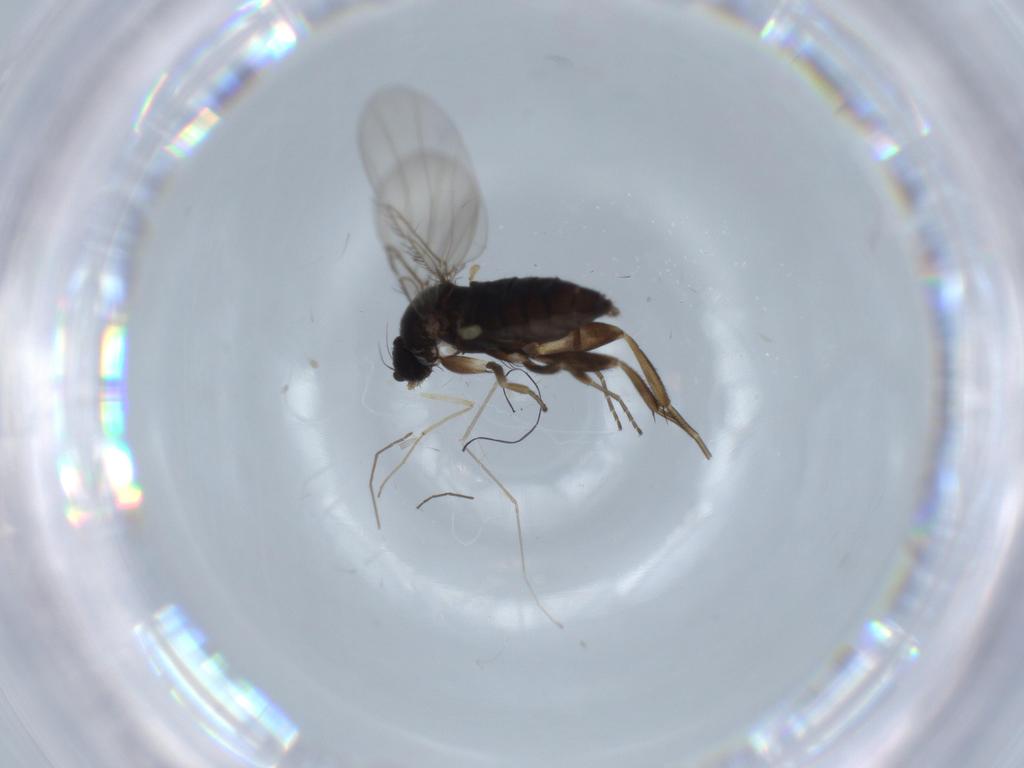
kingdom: Animalia
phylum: Arthropoda
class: Insecta
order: Diptera
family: Phoridae
